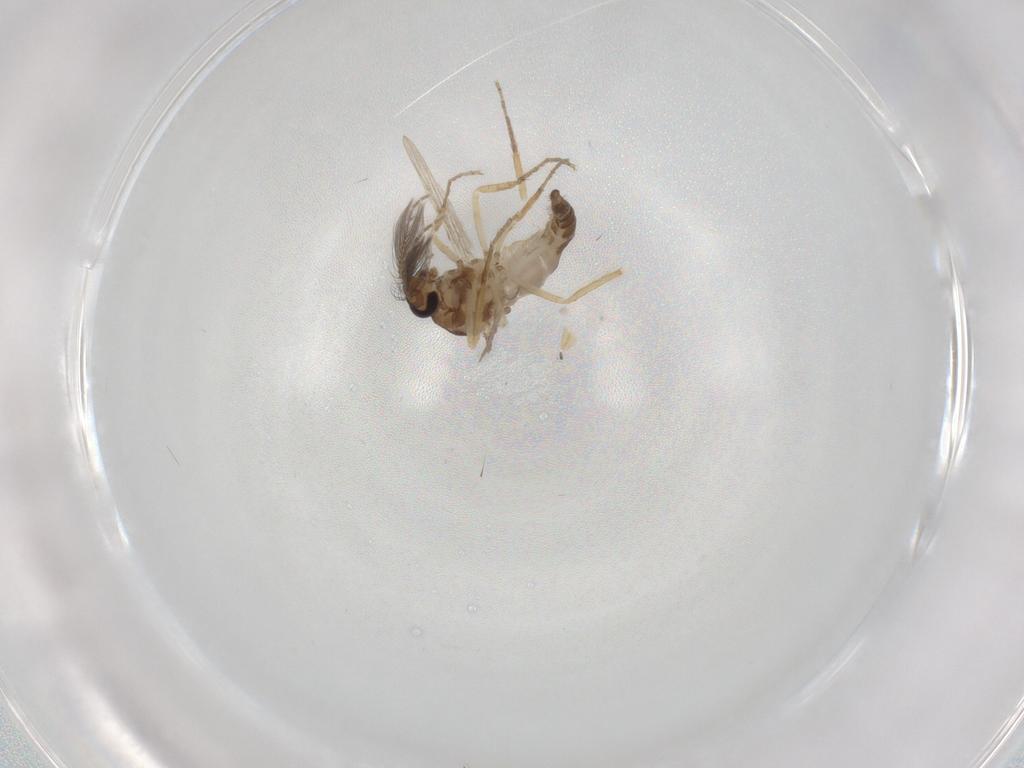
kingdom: Animalia
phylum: Arthropoda
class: Insecta
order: Diptera
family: Ceratopogonidae
